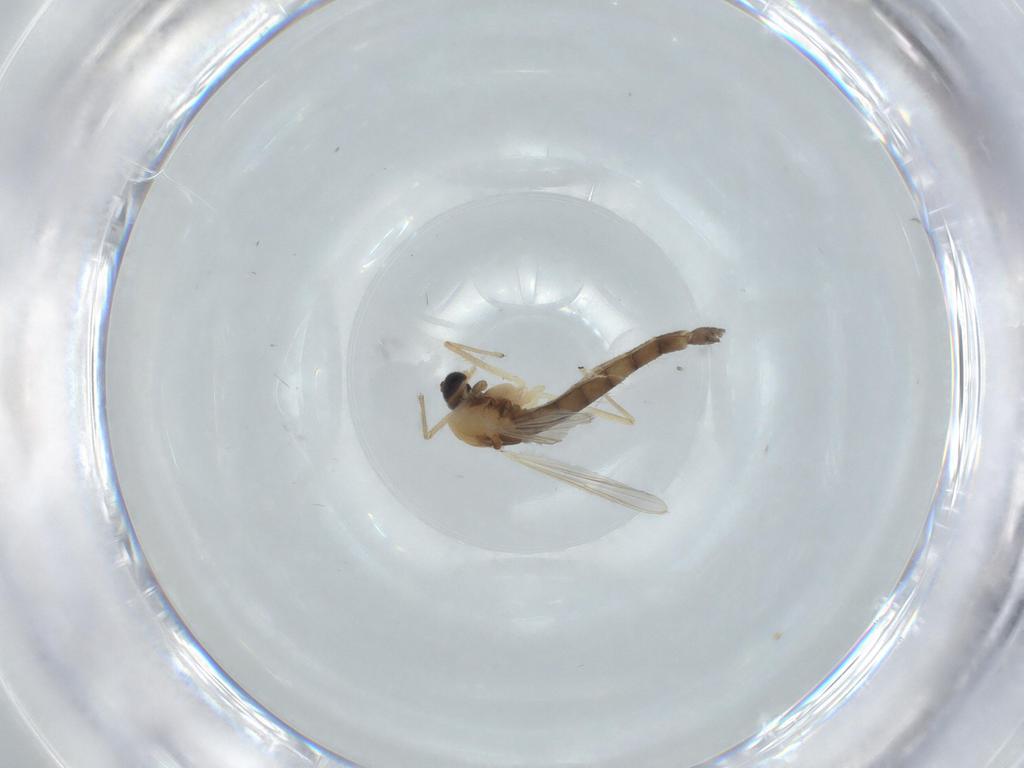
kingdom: Animalia
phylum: Arthropoda
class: Insecta
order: Diptera
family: Chironomidae
